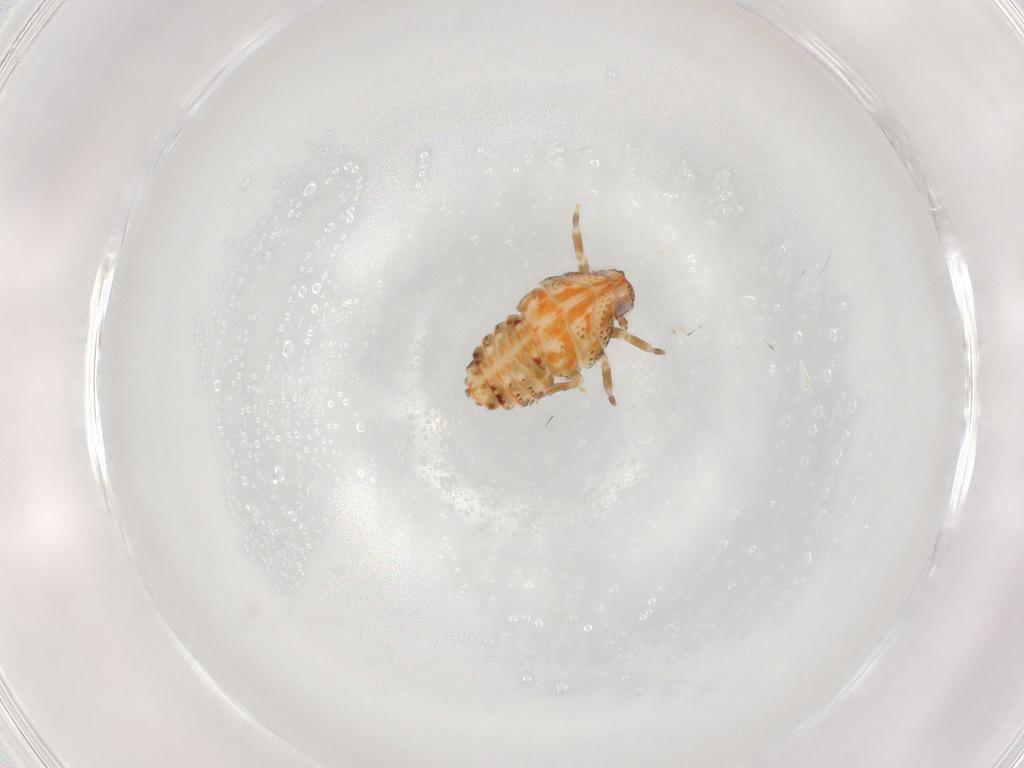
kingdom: Animalia
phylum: Arthropoda
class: Insecta
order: Hemiptera
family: Flatidae
